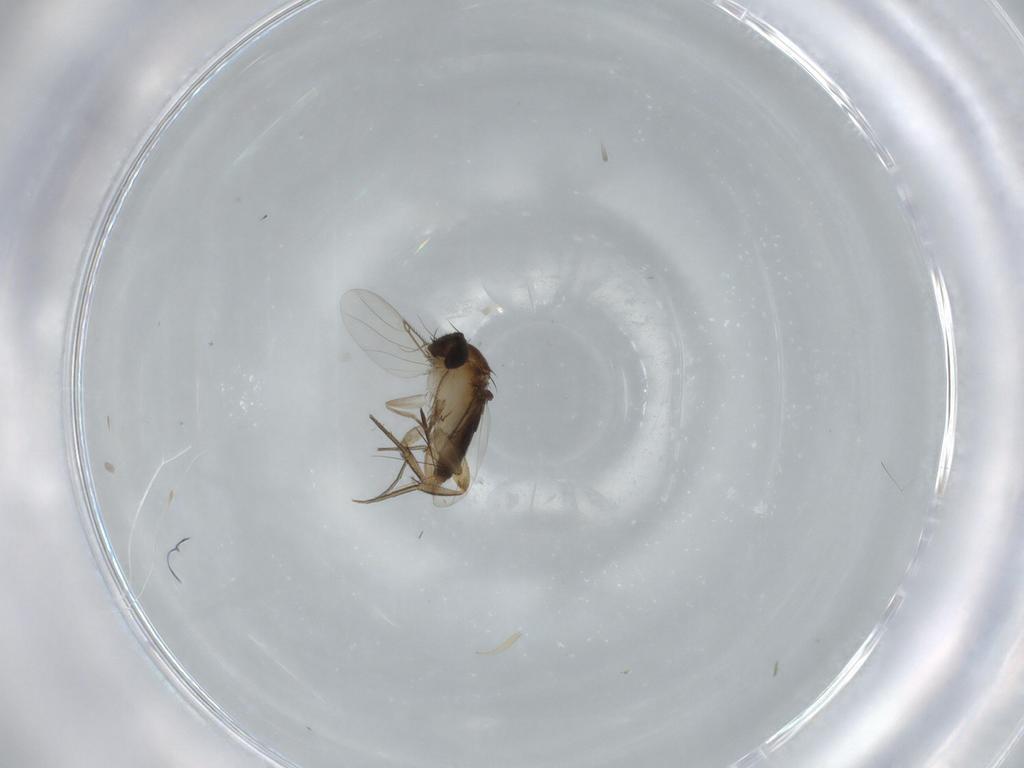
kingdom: Animalia
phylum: Arthropoda
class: Insecta
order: Diptera
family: Phoridae
